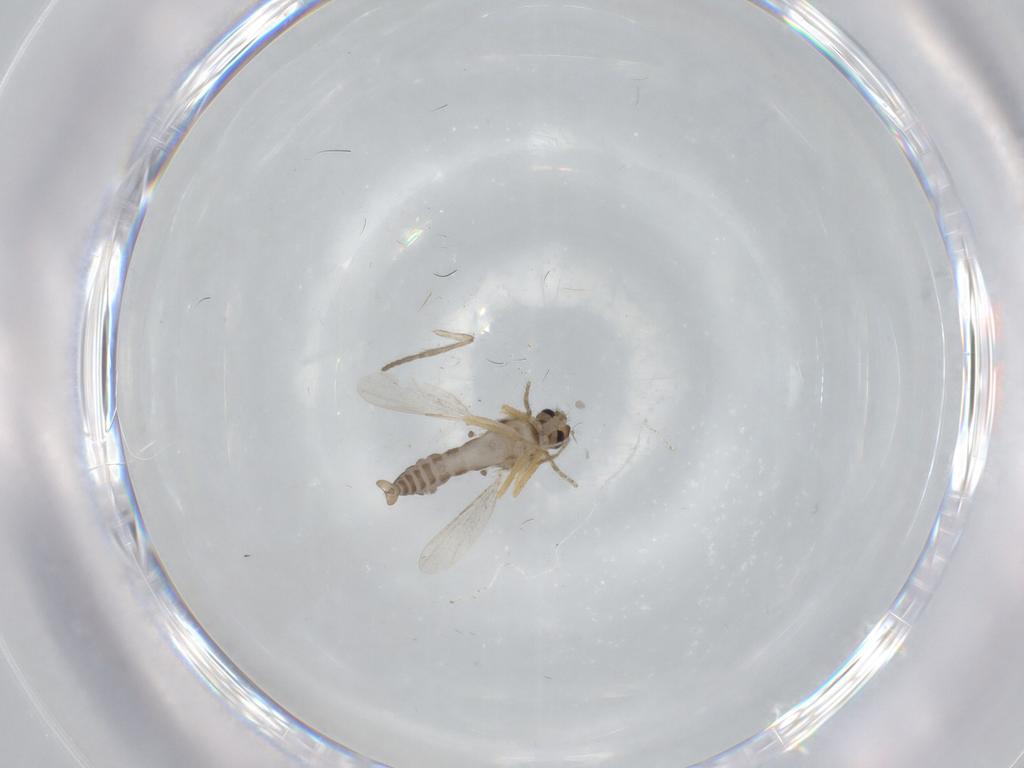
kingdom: Animalia
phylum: Arthropoda
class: Insecta
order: Diptera
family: Ceratopogonidae
